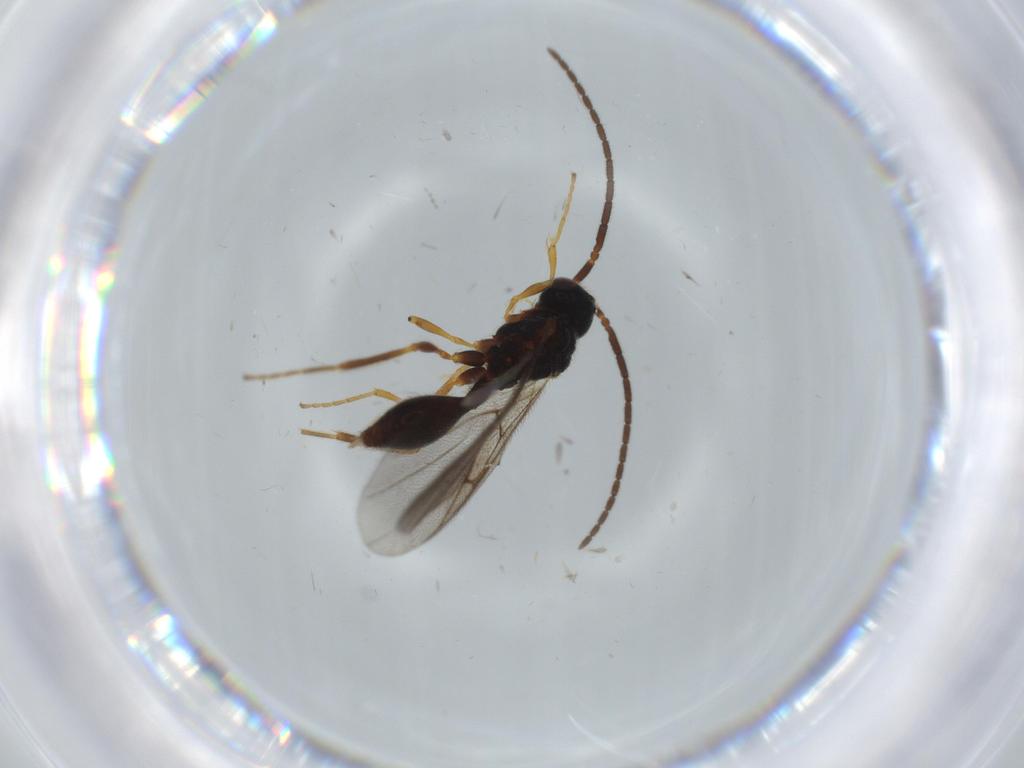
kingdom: Animalia
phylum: Arthropoda
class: Insecta
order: Hymenoptera
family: Diapriidae
